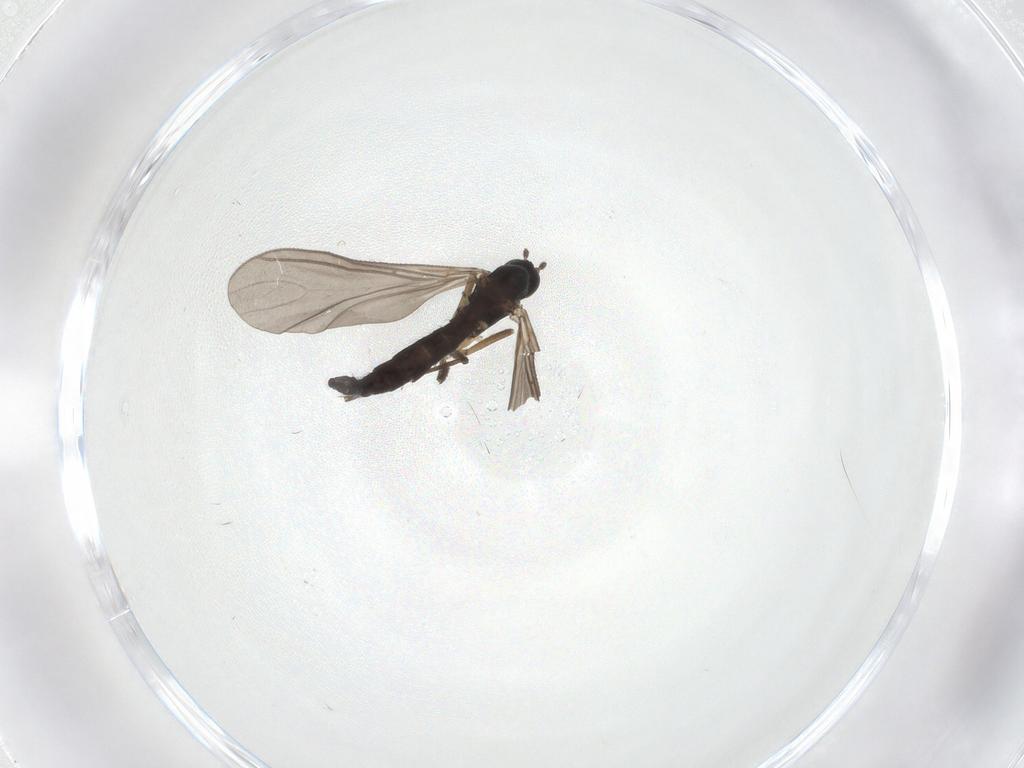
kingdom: Animalia
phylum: Arthropoda
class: Insecta
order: Diptera
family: Sciaridae
